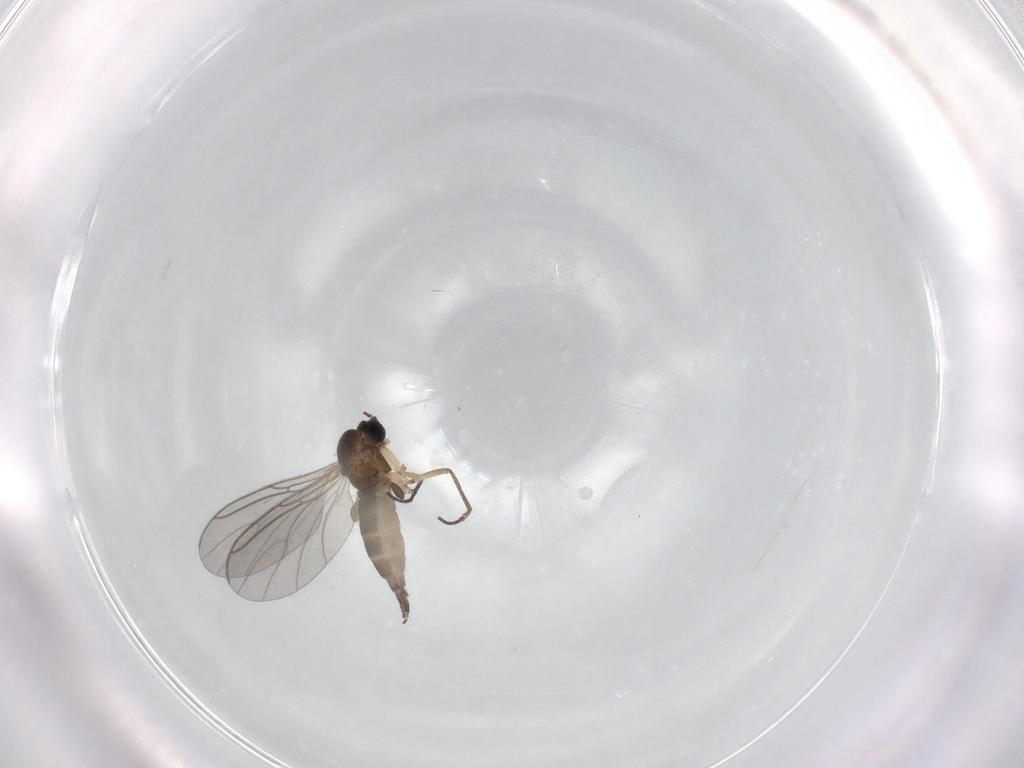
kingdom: Animalia
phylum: Arthropoda
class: Insecta
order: Diptera
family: Sciaridae
